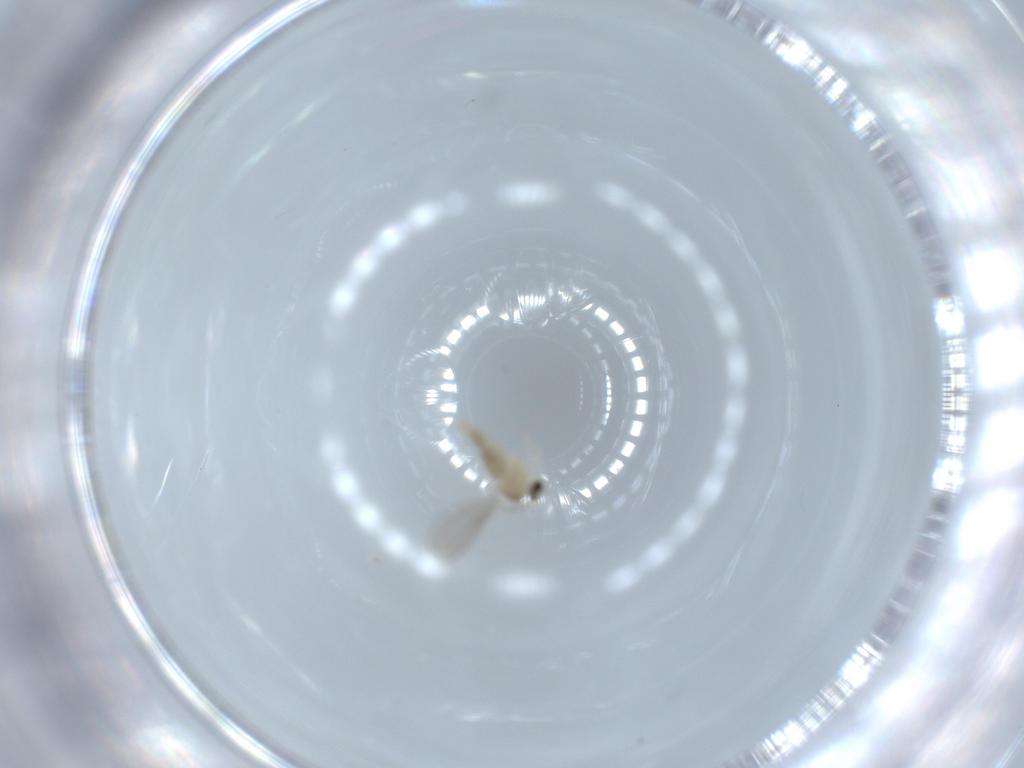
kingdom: Animalia
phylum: Arthropoda
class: Insecta
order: Diptera
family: Cecidomyiidae
